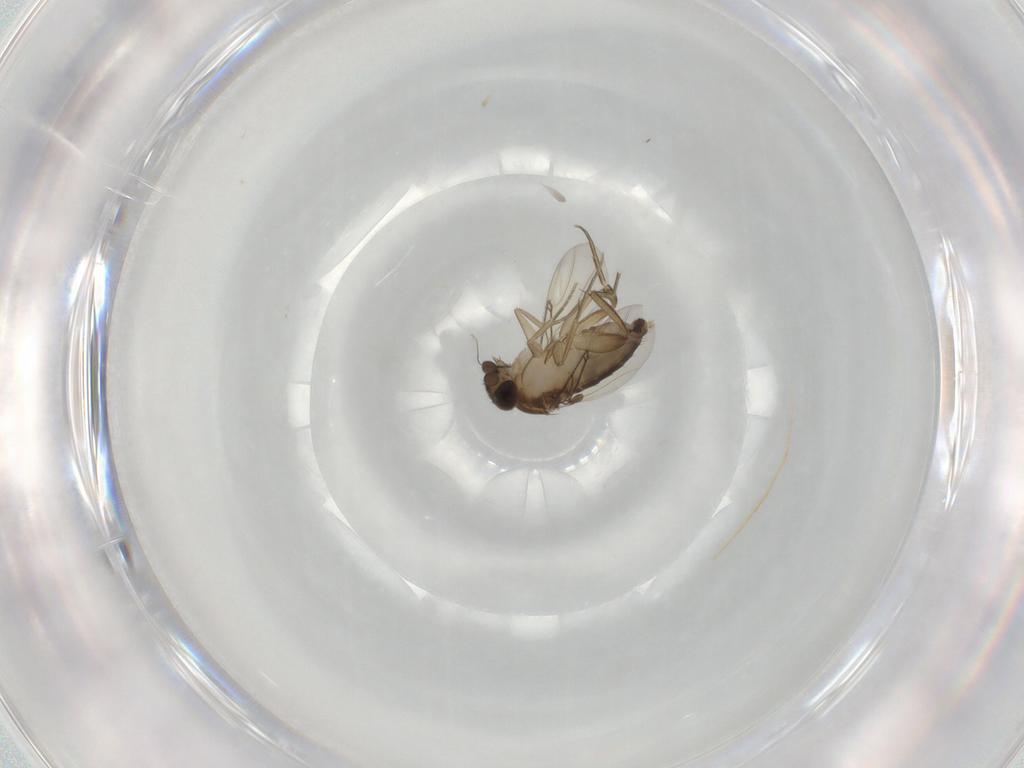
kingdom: Animalia
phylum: Arthropoda
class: Insecta
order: Diptera
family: Phoridae
